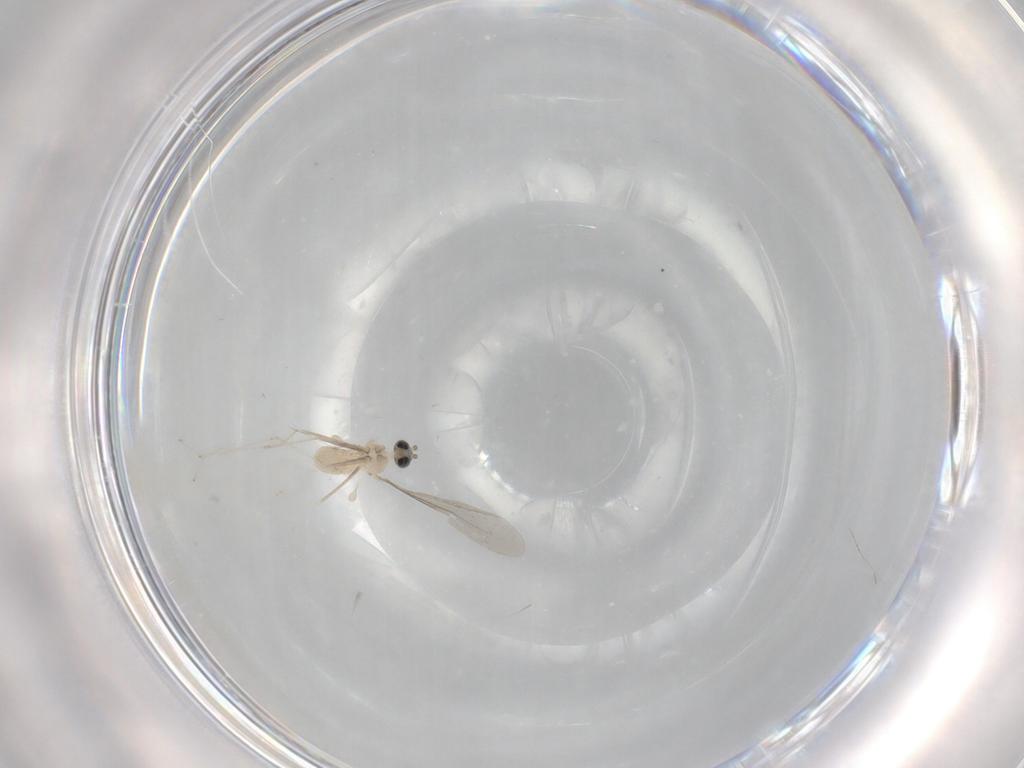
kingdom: Animalia
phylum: Arthropoda
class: Insecta
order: Diptera
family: Cecidomyiidae
